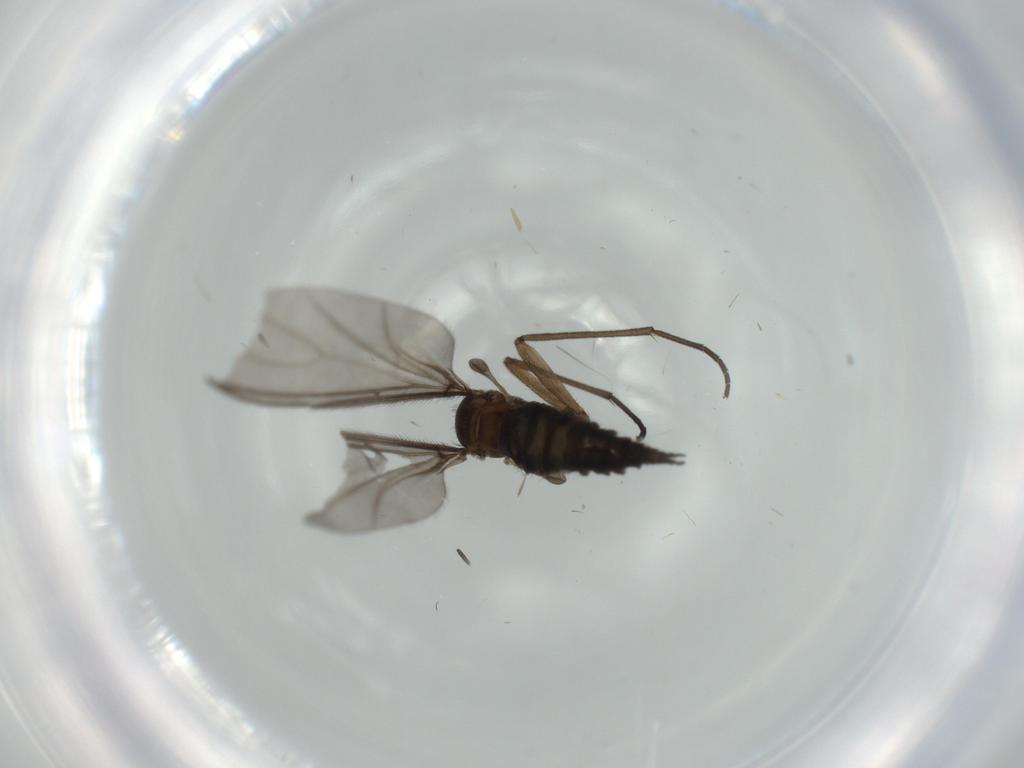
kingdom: Animalia
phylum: Arthropoda
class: Insecta
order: Diptera
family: Sciaridae
